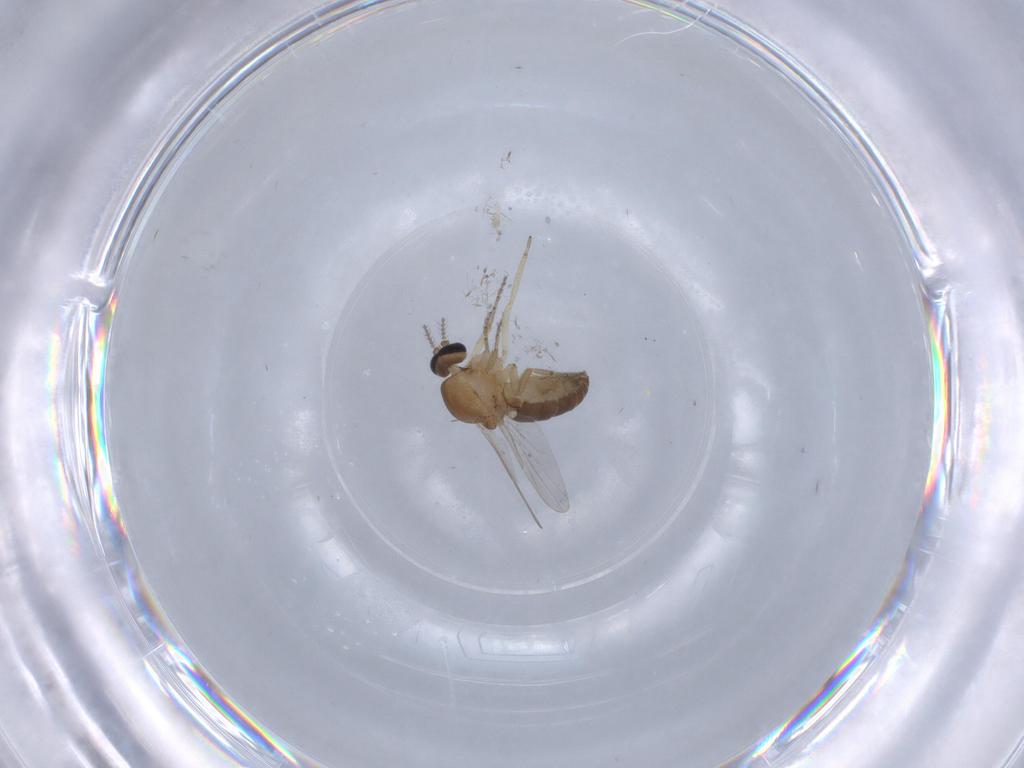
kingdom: Animalia
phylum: Arthropoda
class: Insecta
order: Diptera
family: Ceratopogonidae
